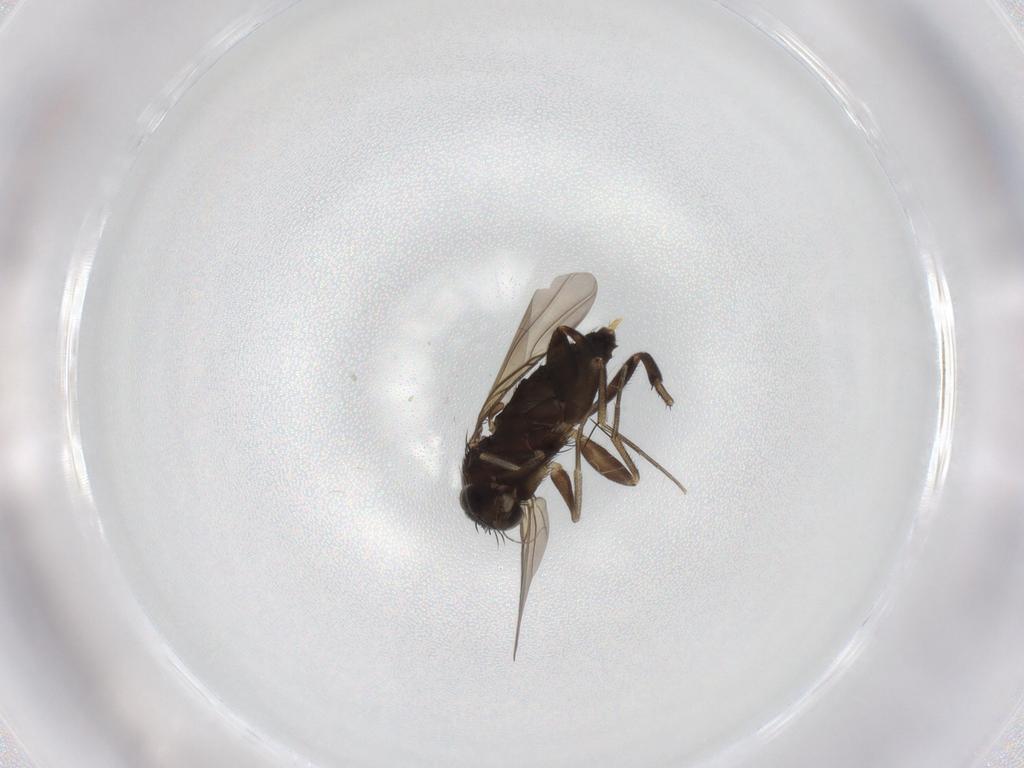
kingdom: Animalia
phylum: Arthropoda
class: Insecta
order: Diptera
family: Phoridae
